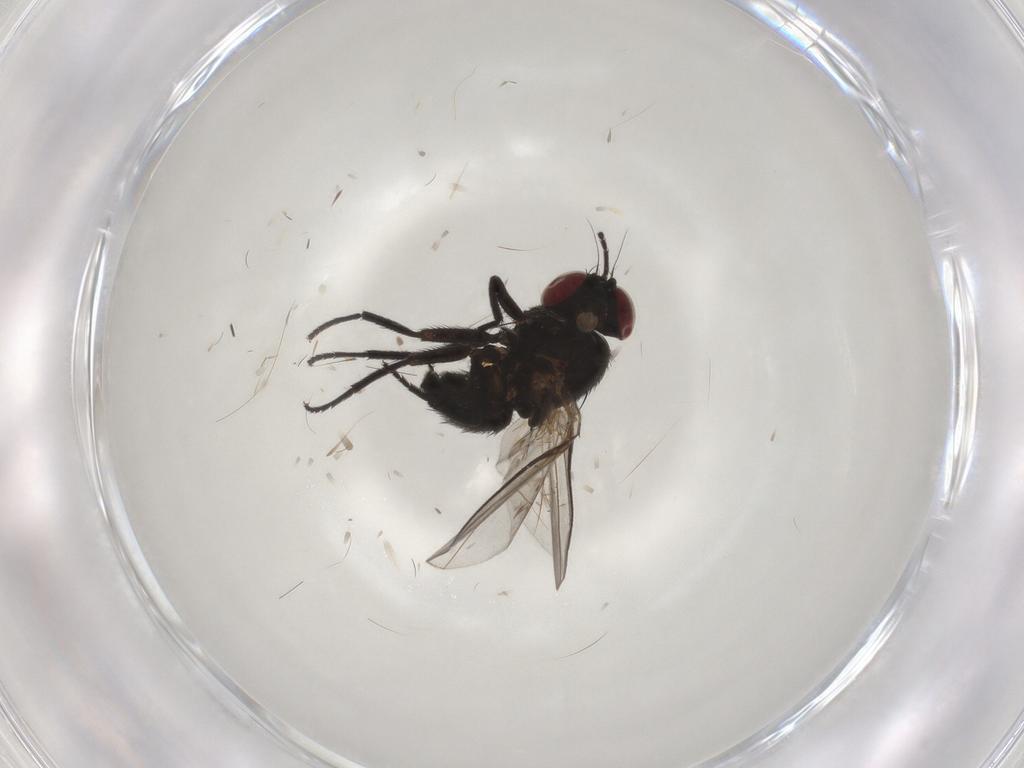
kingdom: Animalia
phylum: Arthropoda
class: Insecta
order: Diptera
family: Agromyzidae
